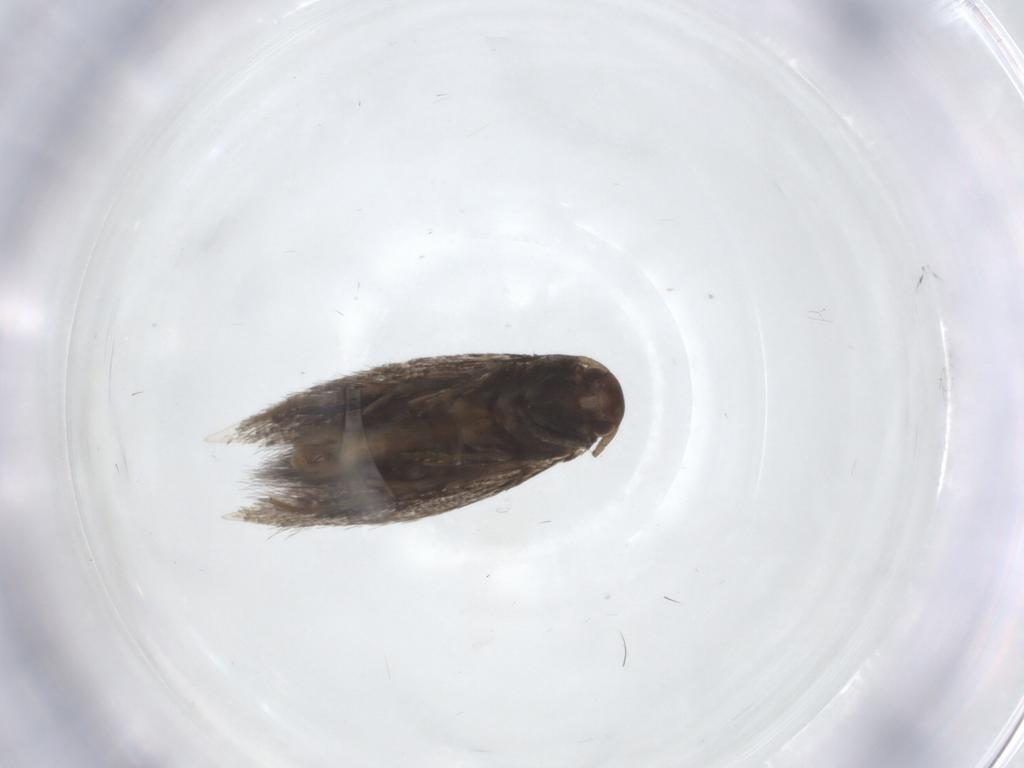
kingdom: Animalia
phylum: Arthropoda
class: Insecta
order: Lepidoptera
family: Elachistidae
